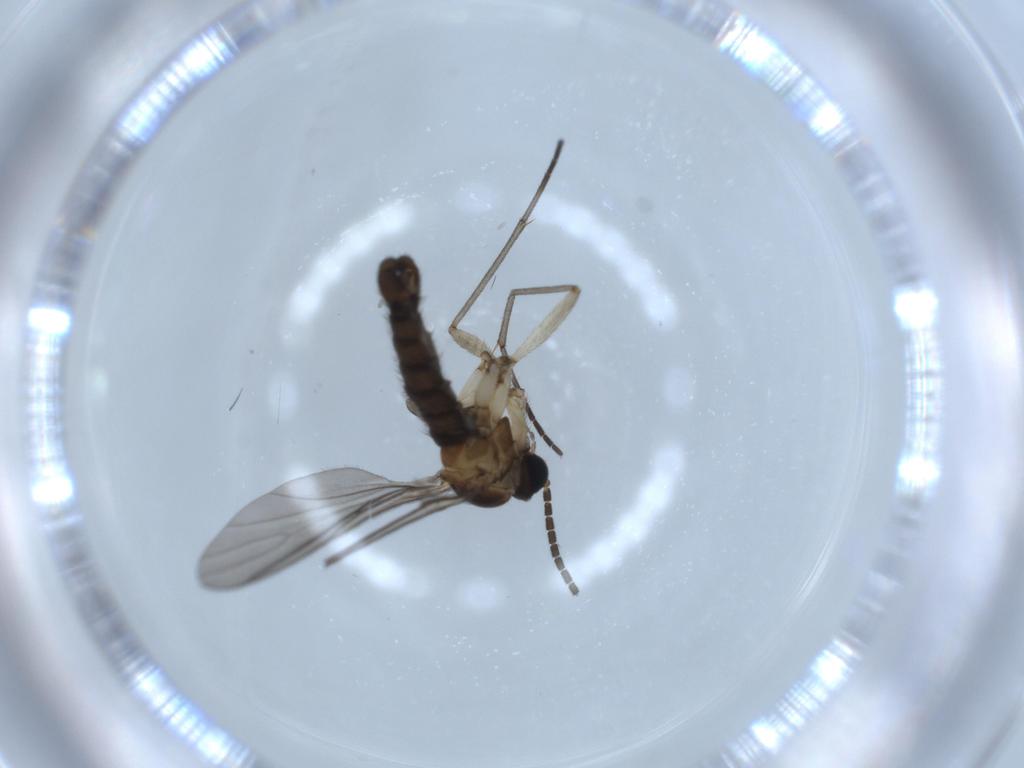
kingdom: Animalia
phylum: Arthropoda
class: Insecta
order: Diptera
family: Sciaridae
